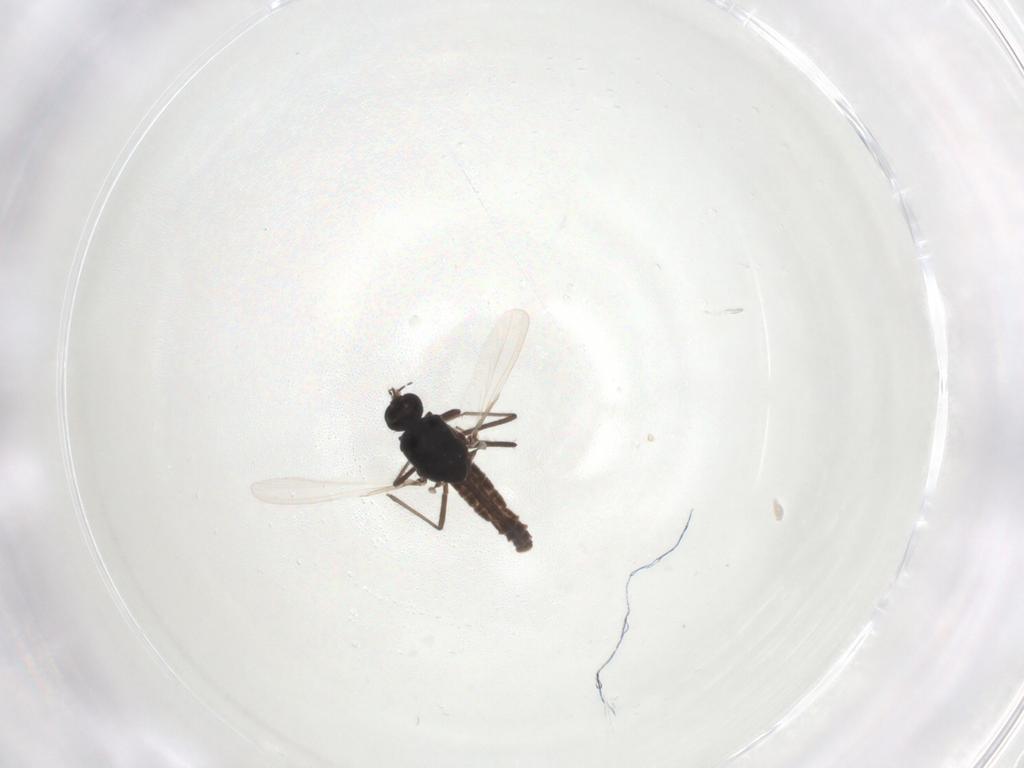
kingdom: Animalia
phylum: Arthropoda
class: Insecta
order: Diptera
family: Ceratopogonidae
